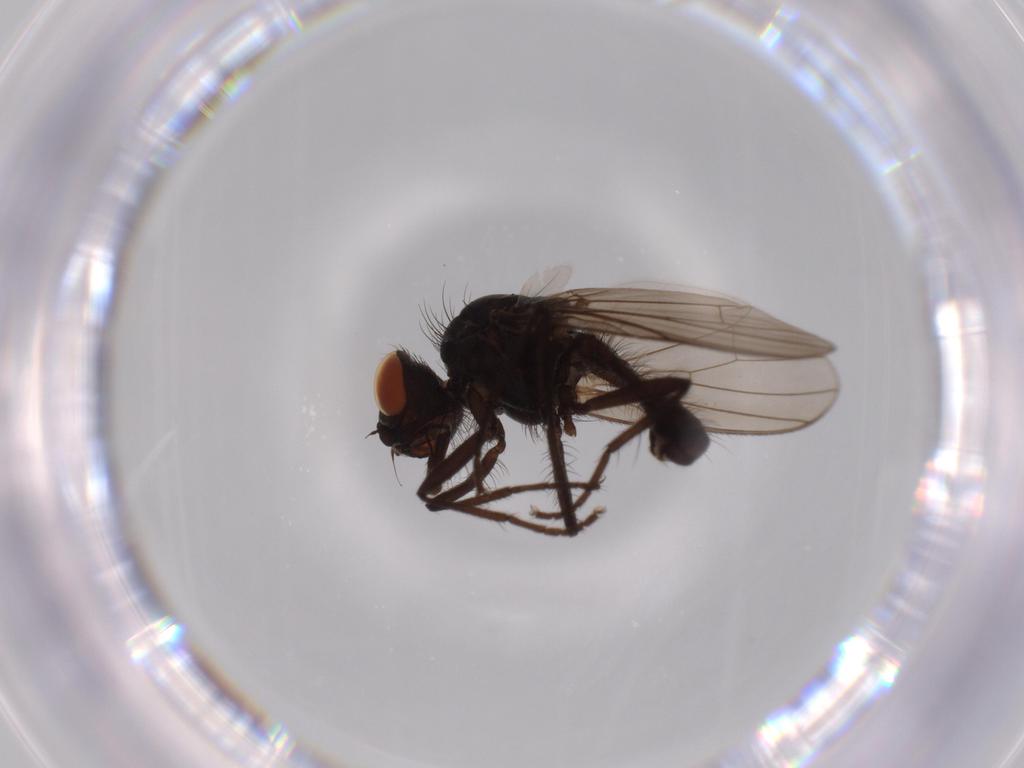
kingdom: Animalia
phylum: Arthropoda
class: Insecta
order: Diptera
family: Anthomyiidae
